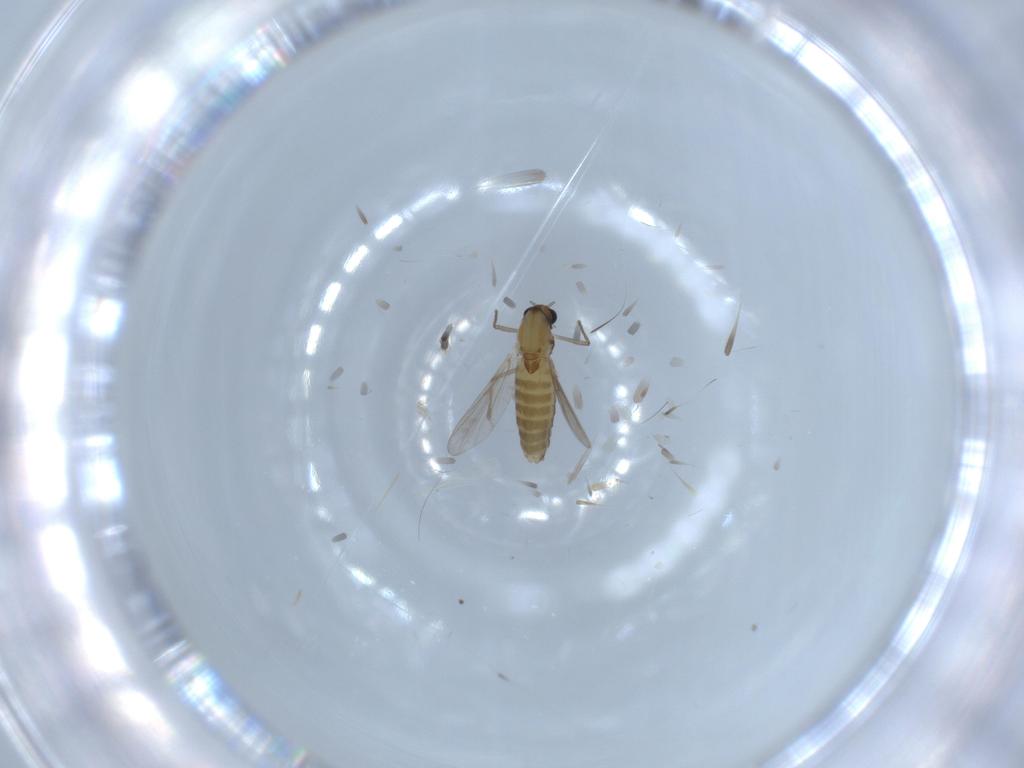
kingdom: Animalia
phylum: Arthropoda
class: Insecta
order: Diptera
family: Chironomidae
